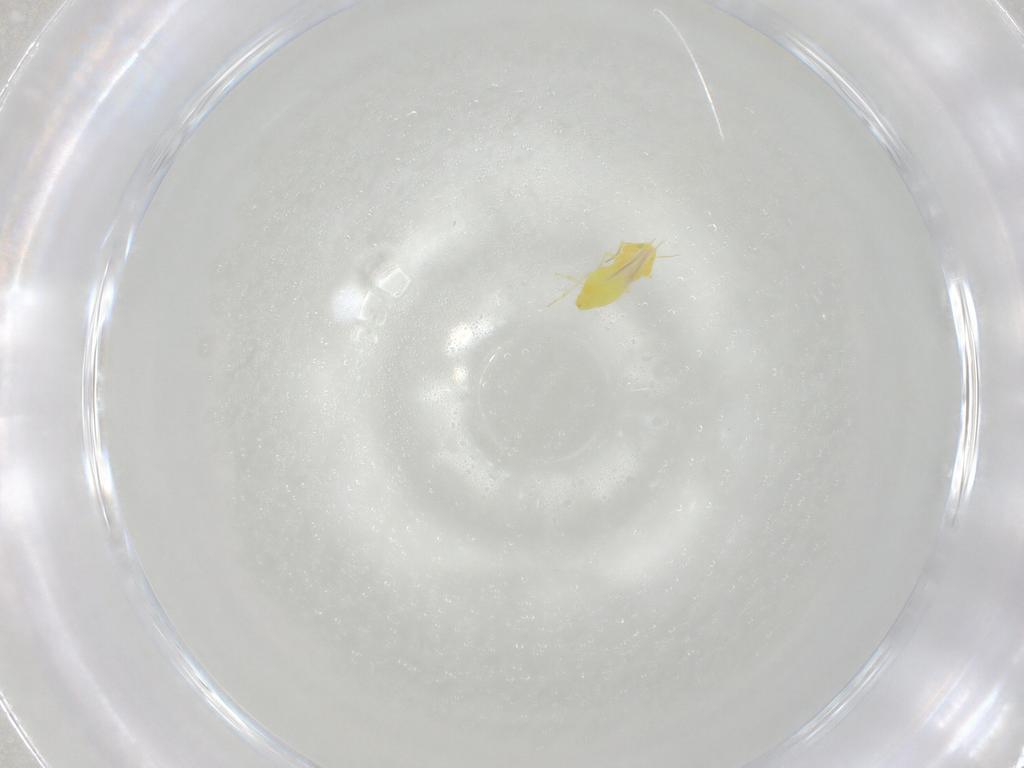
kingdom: Animalia
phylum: Arthropoda
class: Insecta
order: Hemiptera
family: Aleyrodidae
